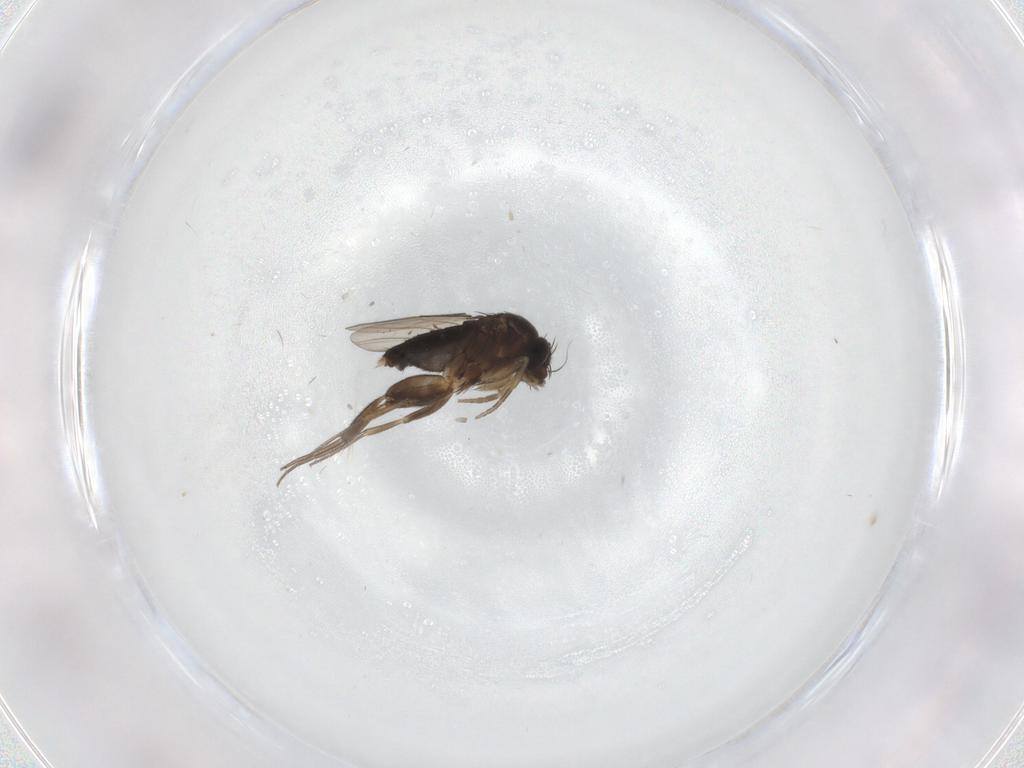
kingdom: Animalia
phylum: Arthropoda
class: Insecta
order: Diptera
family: Phoridae
